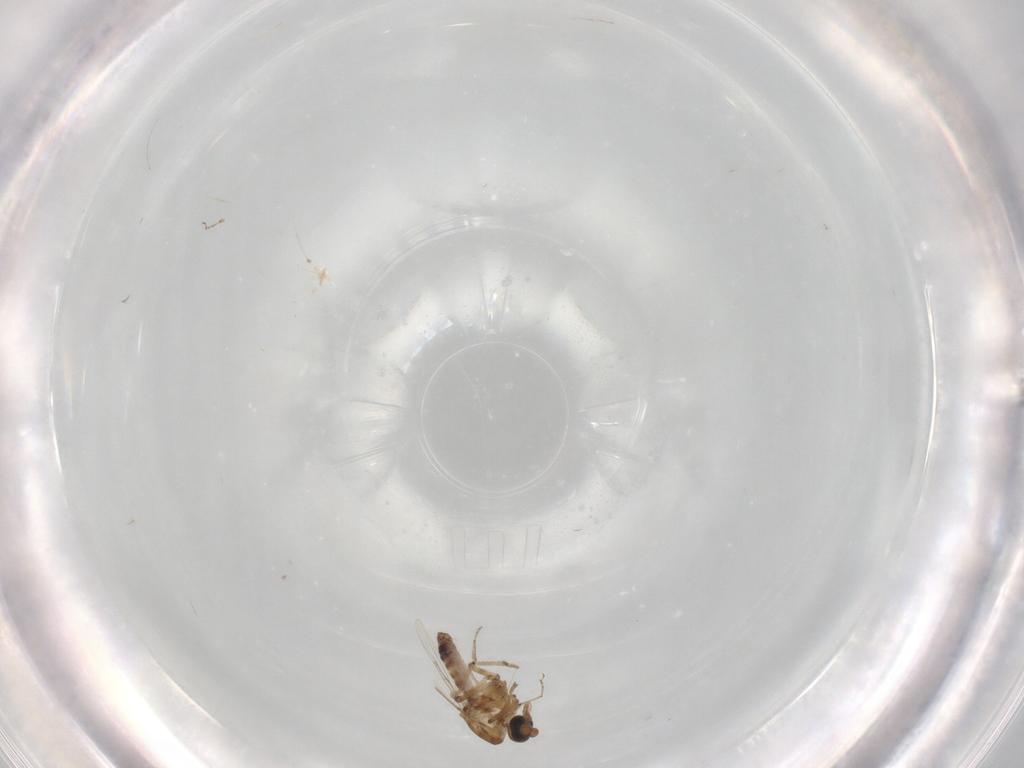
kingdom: Animalia
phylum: Arthropoda
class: Insecta
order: Diptera
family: Ceratopogonidae
